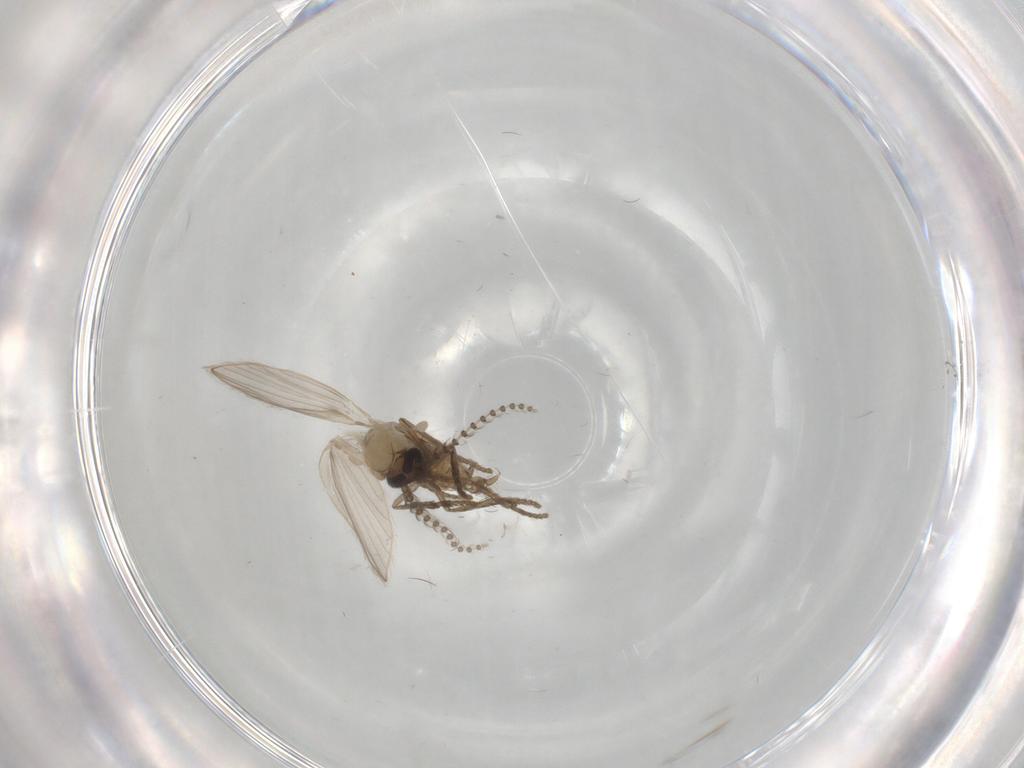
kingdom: Animalia
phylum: Arthropoda
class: Insecta
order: Diptera
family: Psychodidae
